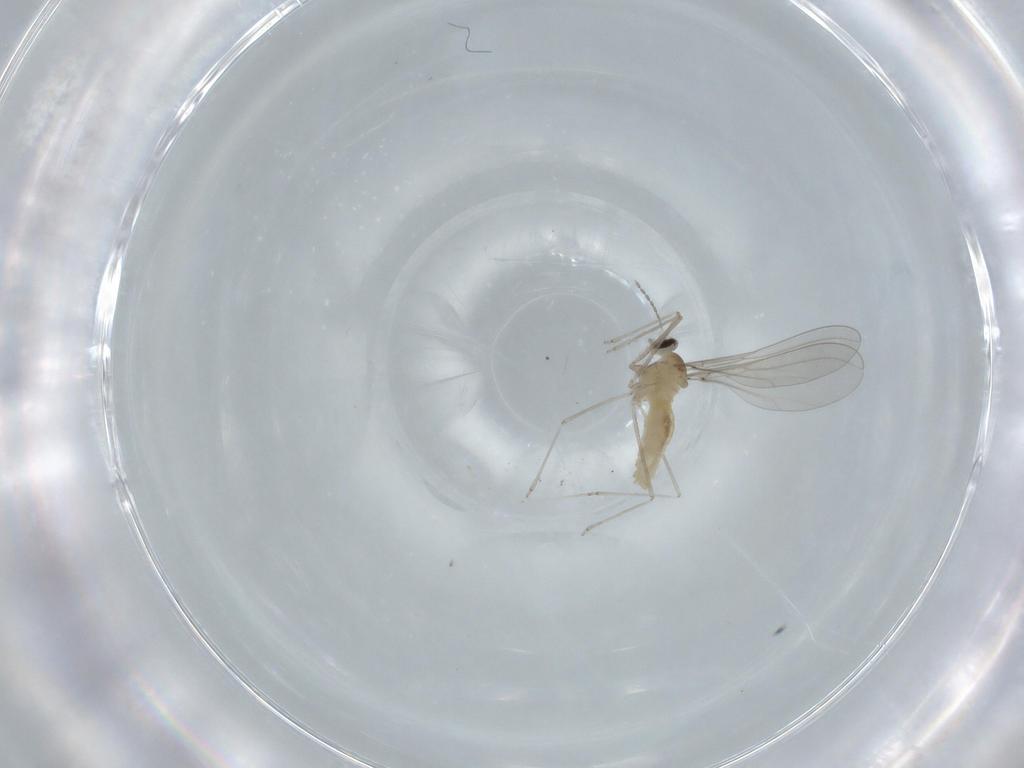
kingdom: Animalia
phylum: Arthropoda
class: Insecta
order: Diptera
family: Cecidomyiidae
